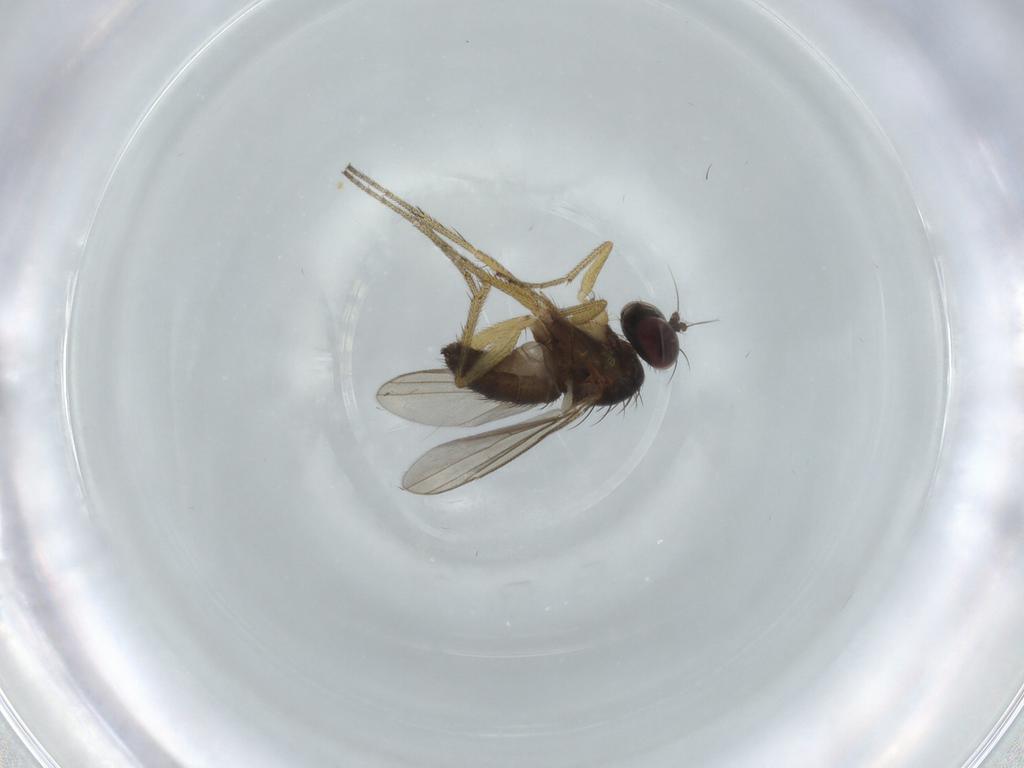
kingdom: Animalia
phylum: Arthropoda
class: Insecta
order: Diptera
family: Dolichopodidae
